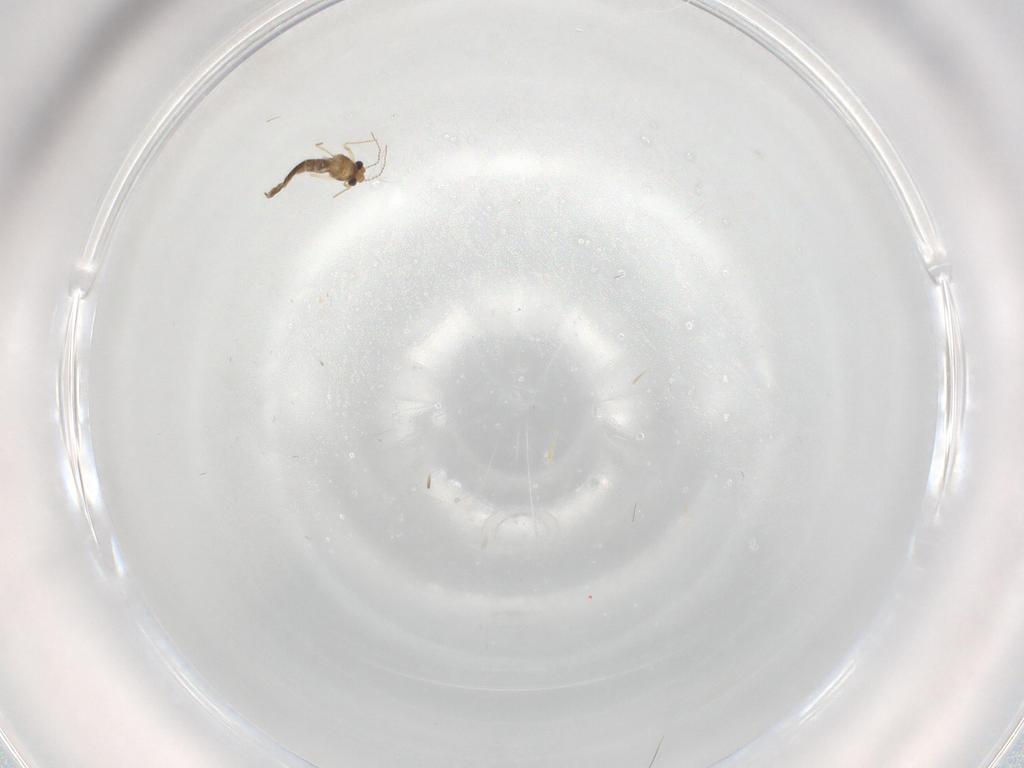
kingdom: Animalia
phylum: Arthropoda
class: Insecta
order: Diptera
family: Chironomidae
